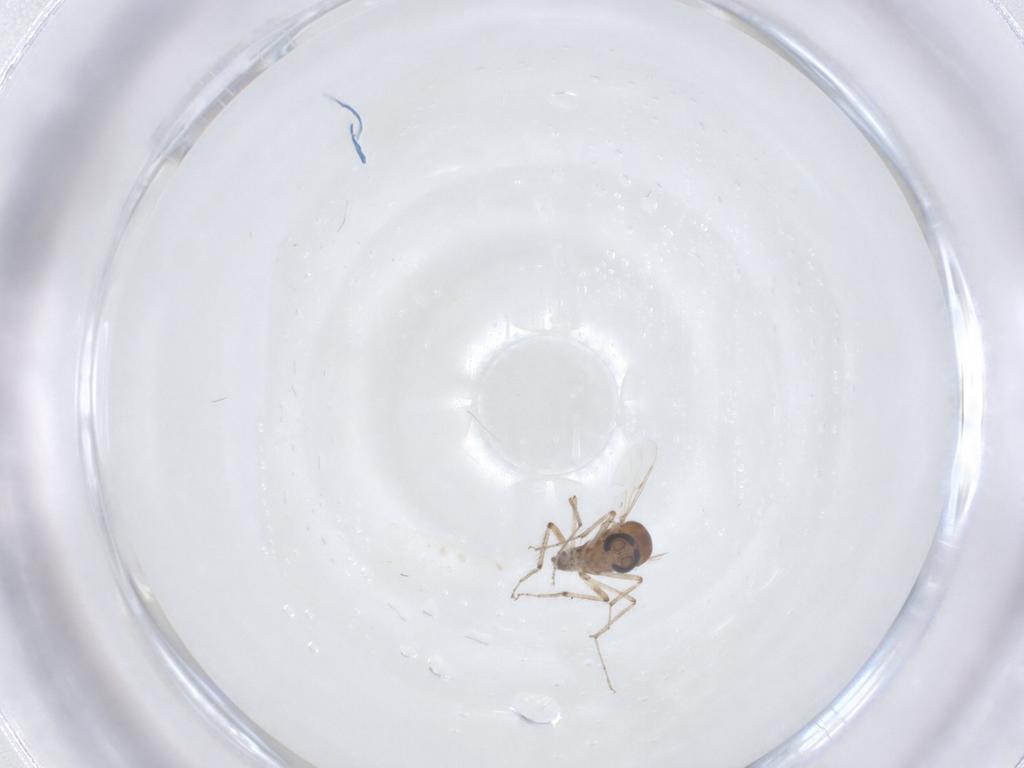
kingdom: Animalia
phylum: Arthropoda
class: Insecta
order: Diptera
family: Ceratopogonidae
